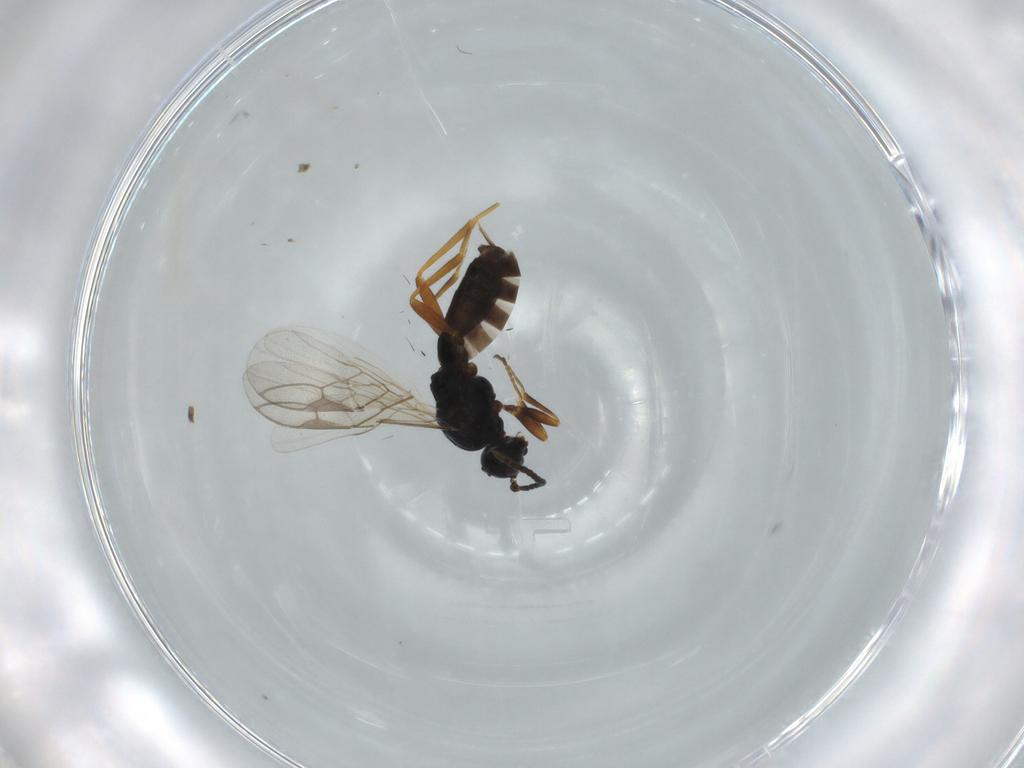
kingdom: Animalia
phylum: Arthropoda
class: Insecta
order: Hymenoptera
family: Braconidae
